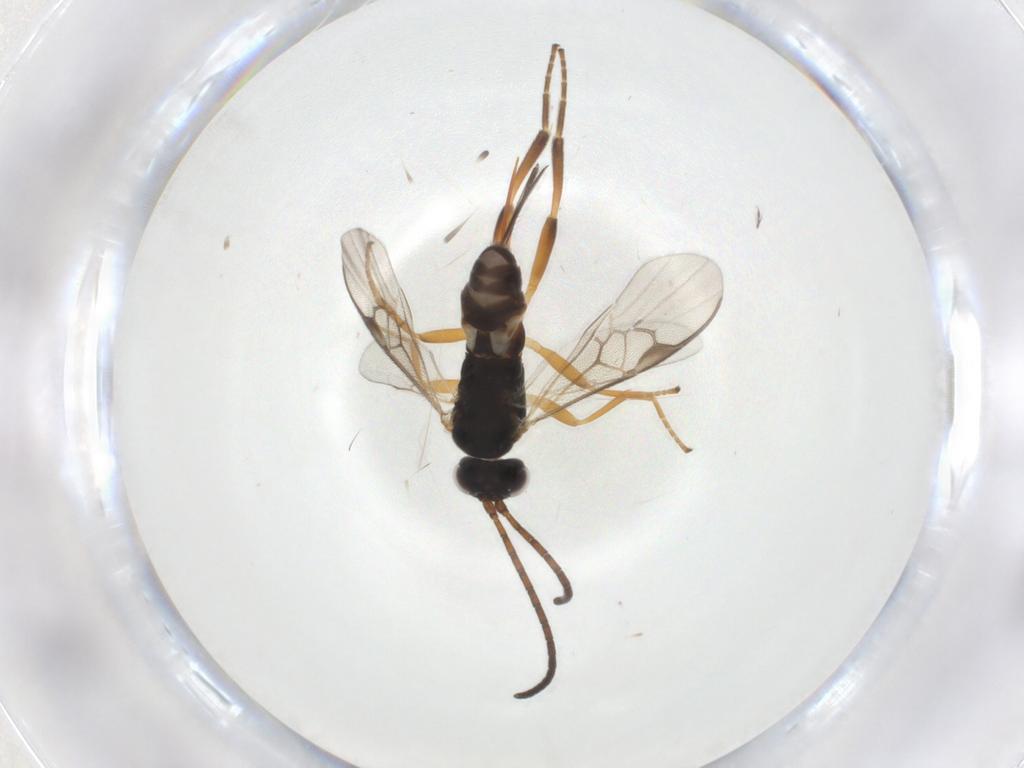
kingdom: Animalia
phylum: Arthropoda
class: Insecta
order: Hymenoptera
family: Braconidae
